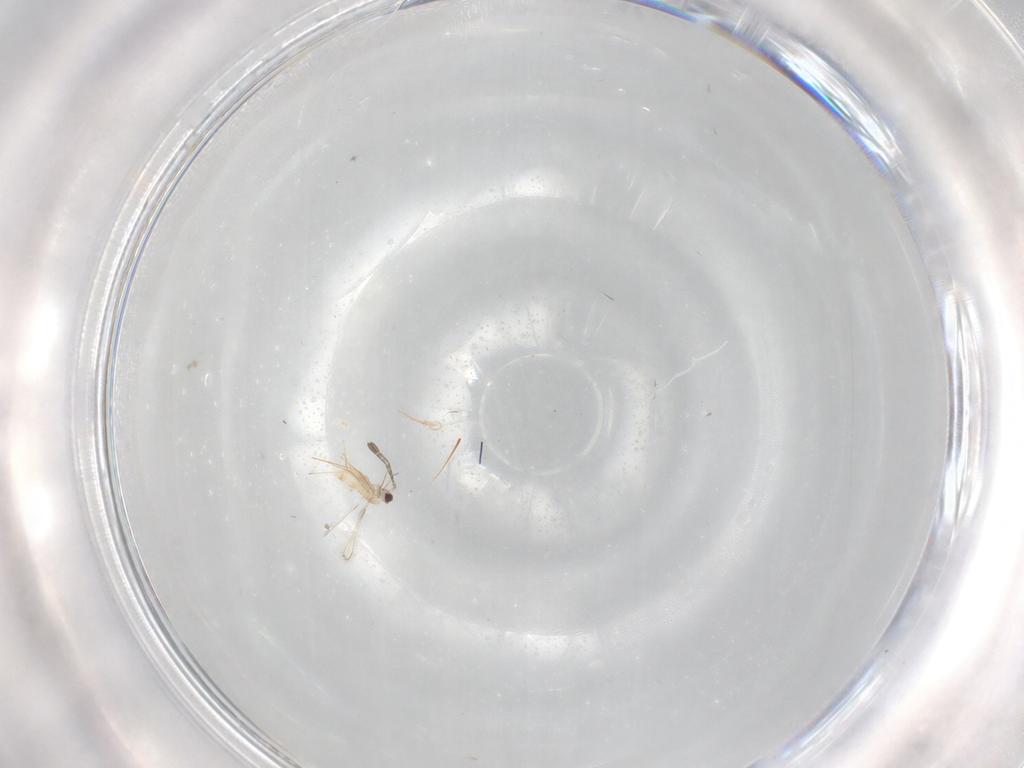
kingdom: Animalia
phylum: Arthropoda
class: Insecta
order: Hymenoptera
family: Mymaridae
